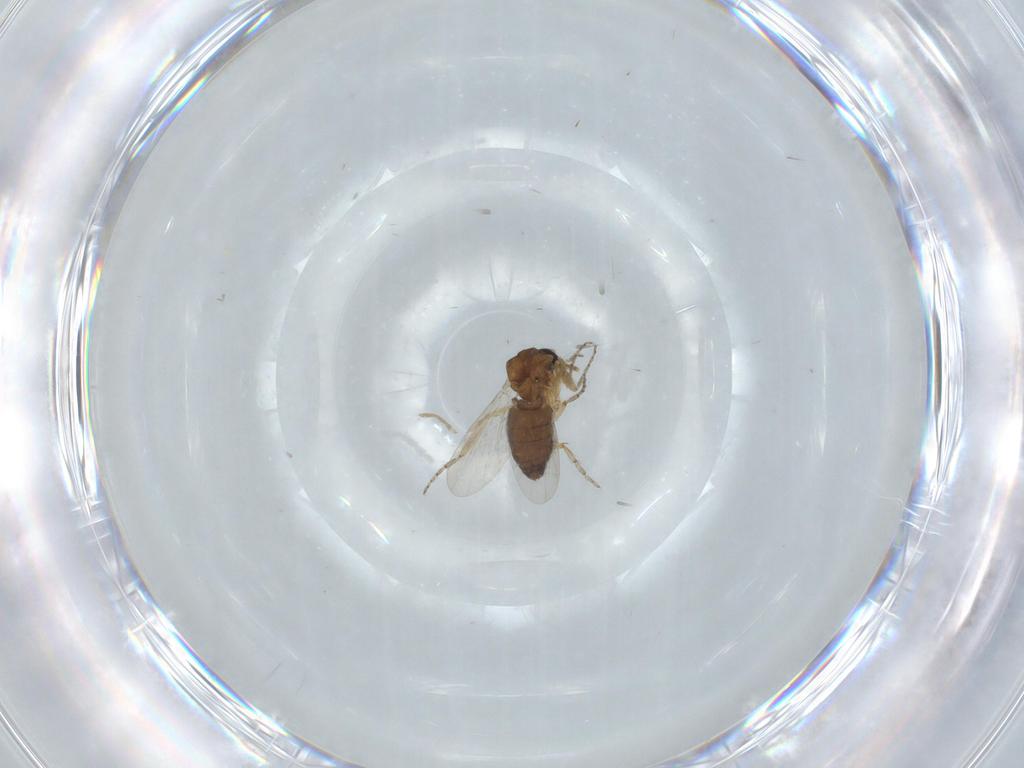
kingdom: Animalia
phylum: Arthropoda
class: Insecta
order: Diptera
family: Ceratopogonidae
